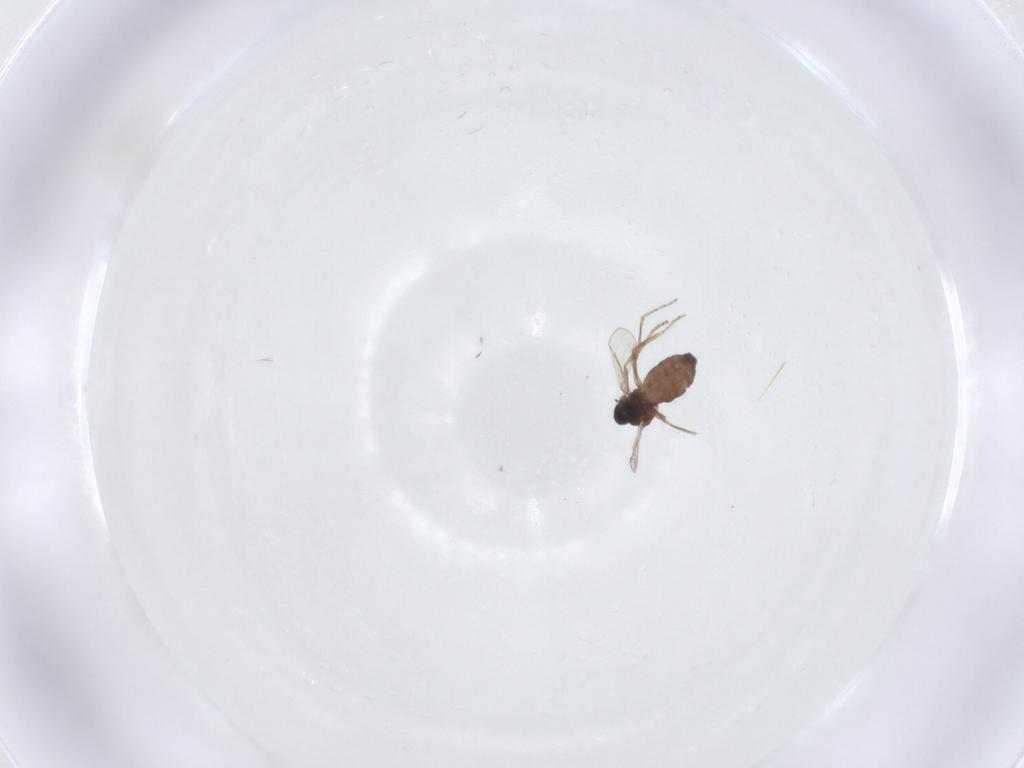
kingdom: Animalia
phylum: Arthropoda
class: Insecta
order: Diptera
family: Ceratopogonidae
